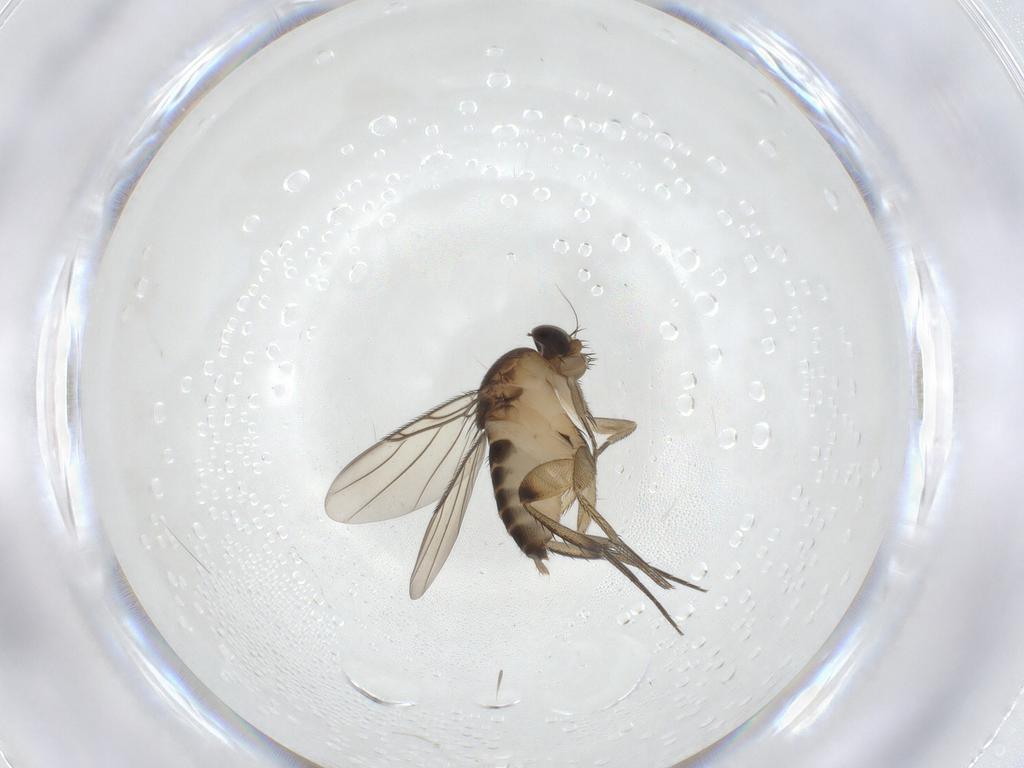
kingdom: Animalia
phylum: Arthropoda
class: Insecta
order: Diptera
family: Phoridae
